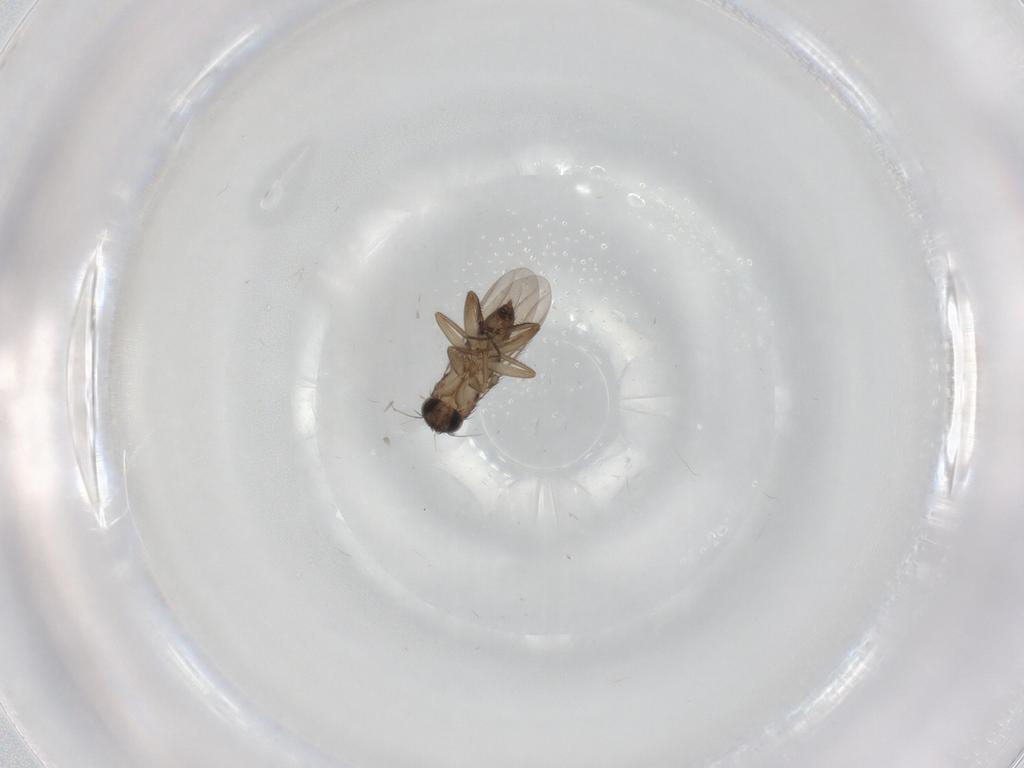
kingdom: Animalia
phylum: Arthropoda
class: Insecta
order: Diptera
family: Phoridae
